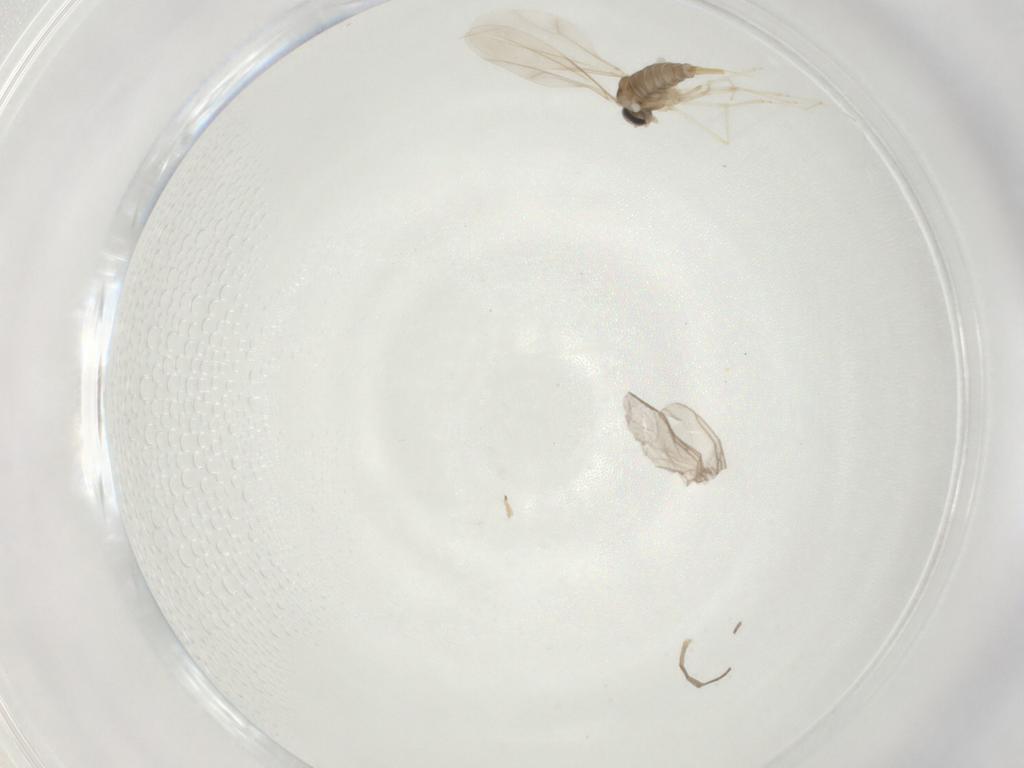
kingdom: Animalia
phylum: Arthropoda
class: Insecta
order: Diptera
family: Cecidomyiidae
